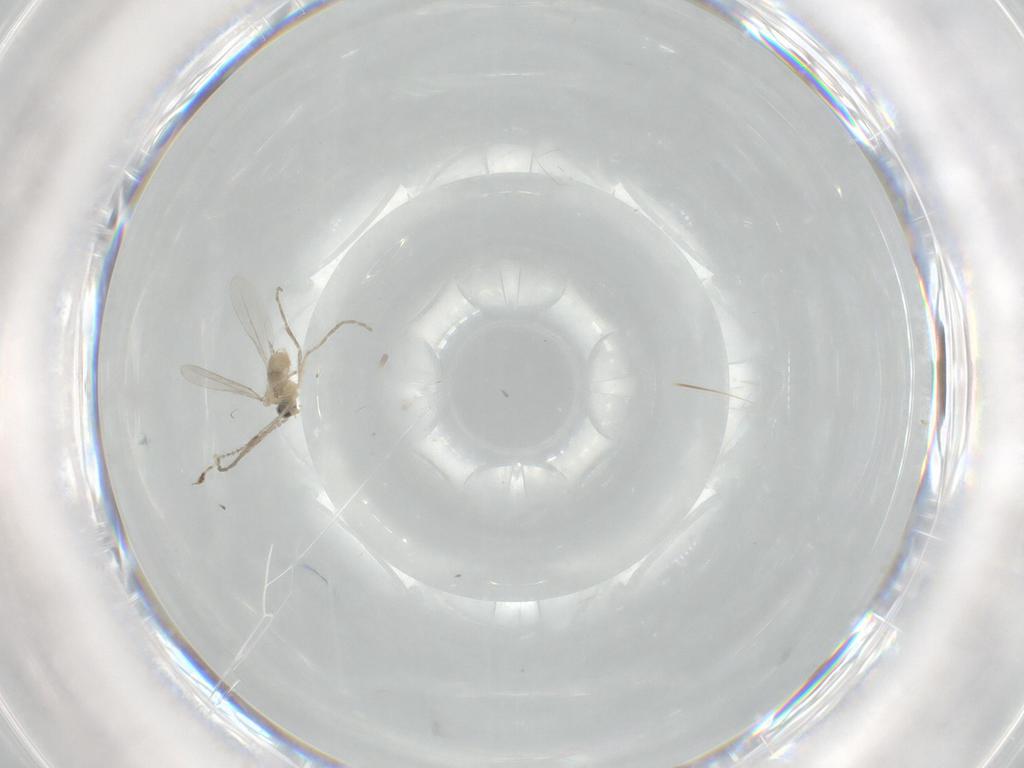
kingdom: Animalia
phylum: Arthropoda
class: Insecta
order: Diptera
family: Cecidomyiidae
